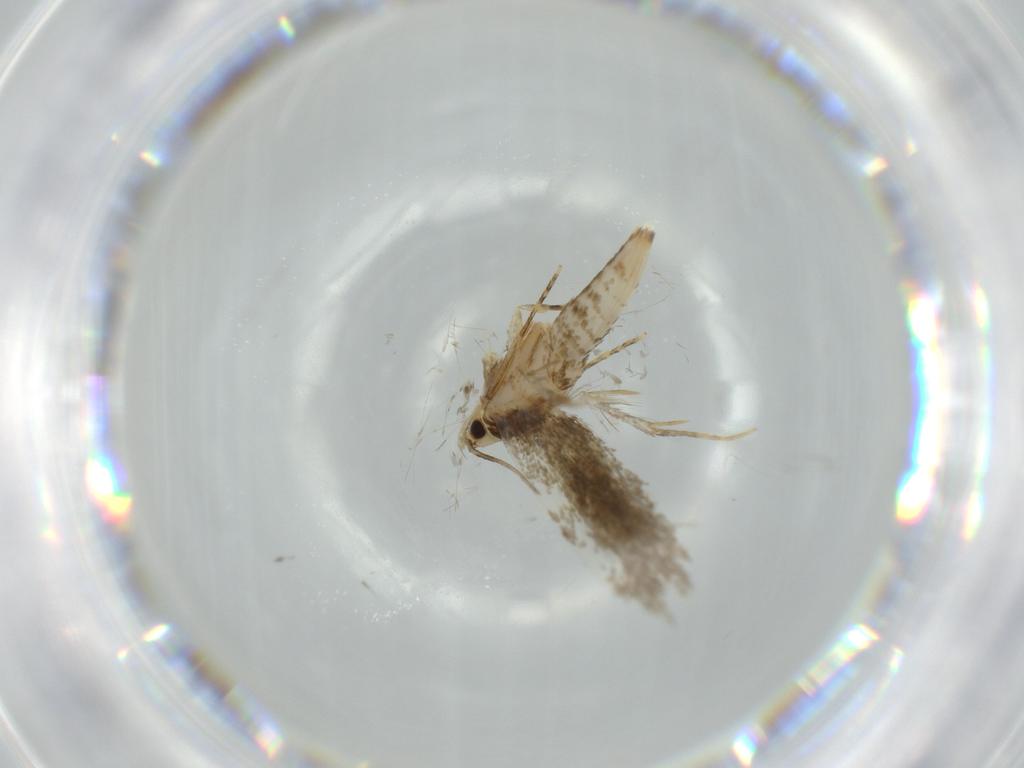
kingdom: Animalia
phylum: Arthropoda
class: Insecta
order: Lepidoptera
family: Tineidae
